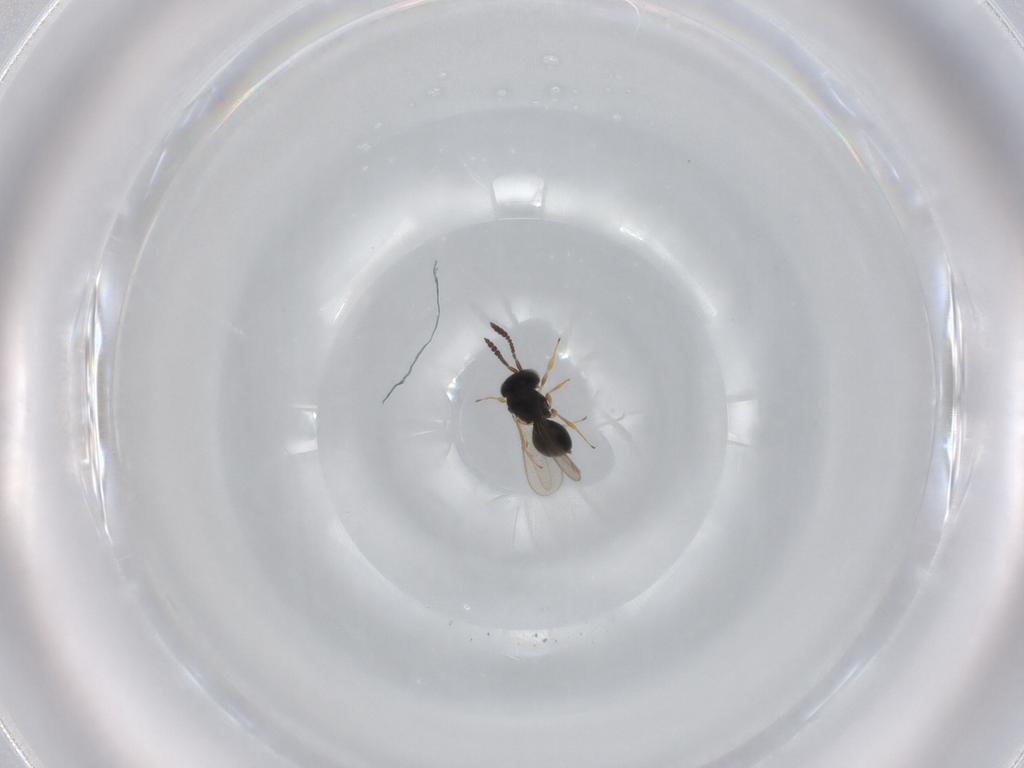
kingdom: Animalia
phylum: Arthropoda
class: Insecta
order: Hymenoptera
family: Scelionidae
